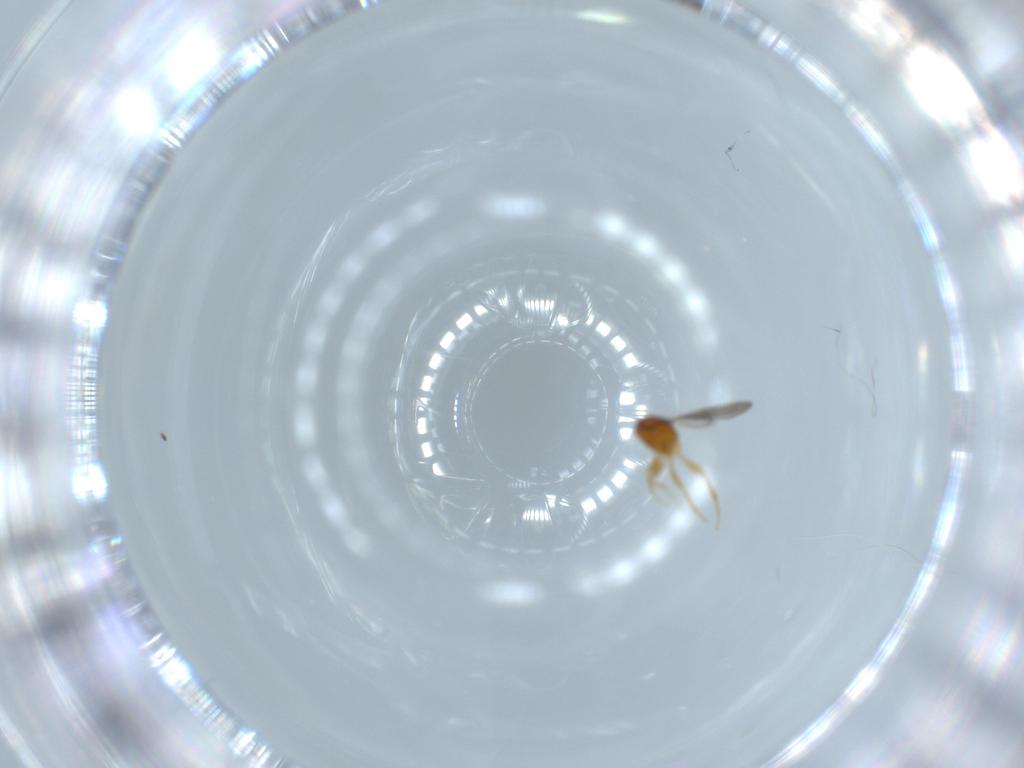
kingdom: Animalia
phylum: Arthropoda
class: Insecta
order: Hymenoptera
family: Ceraphronidae
